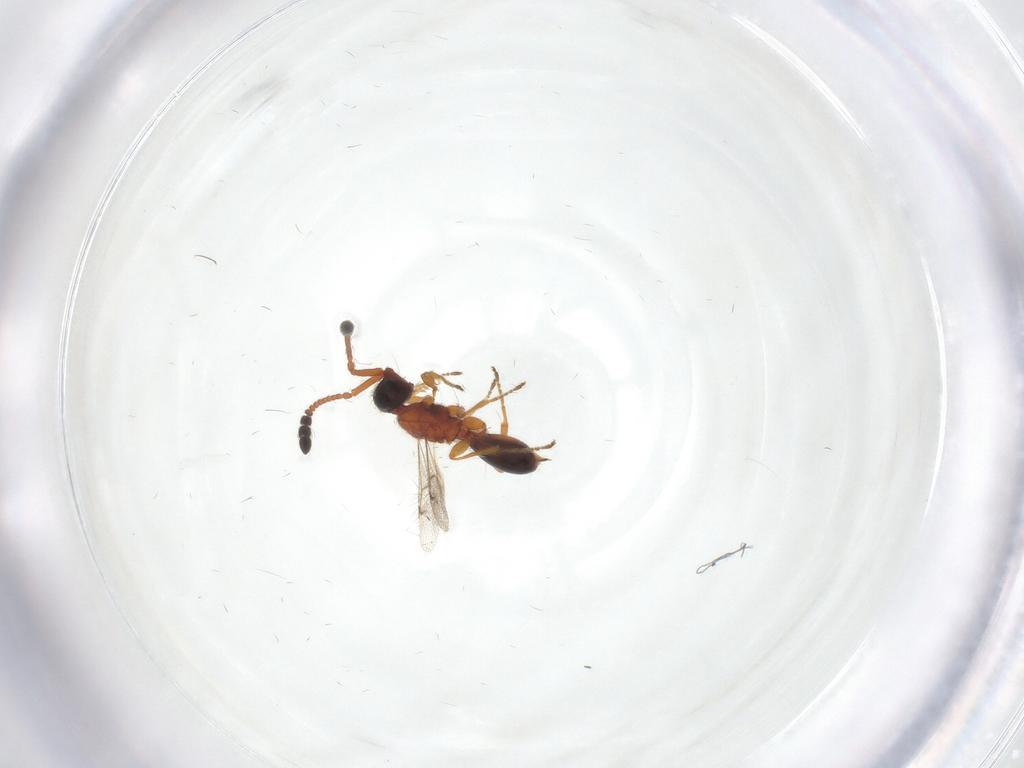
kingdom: Animalia
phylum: Arthropoda
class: Insecta
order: Hymenoptera
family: Diapriidae
